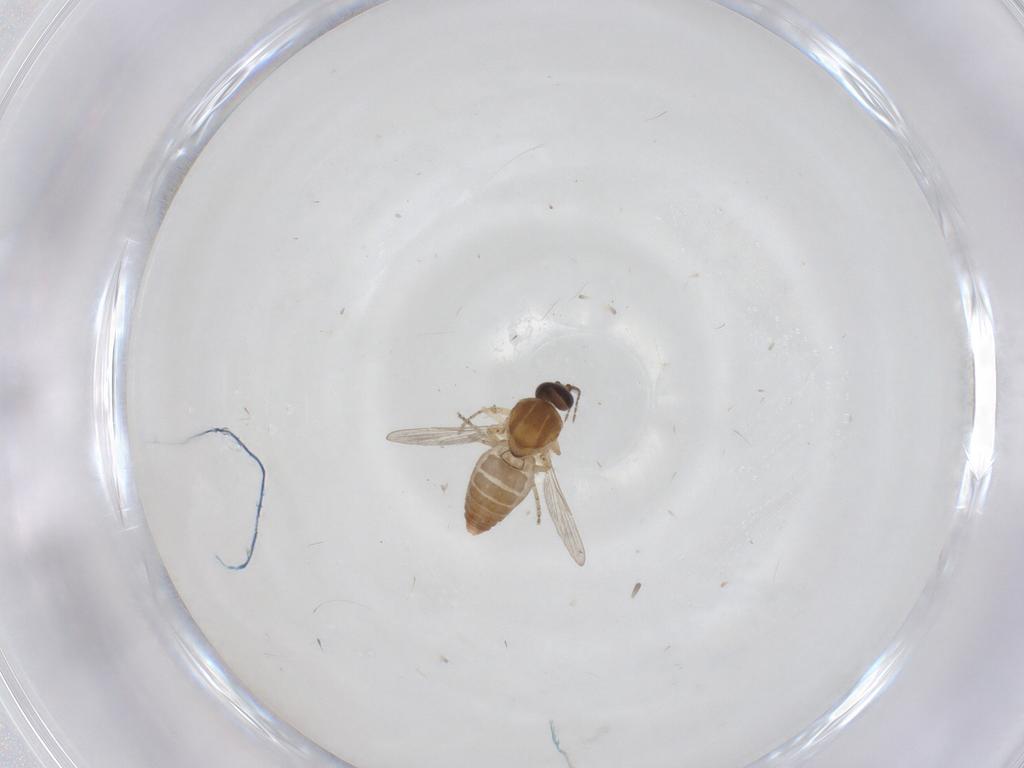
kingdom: Animalia
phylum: Arthropoda
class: Insecta
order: Diptera
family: Ceratopogonidae
